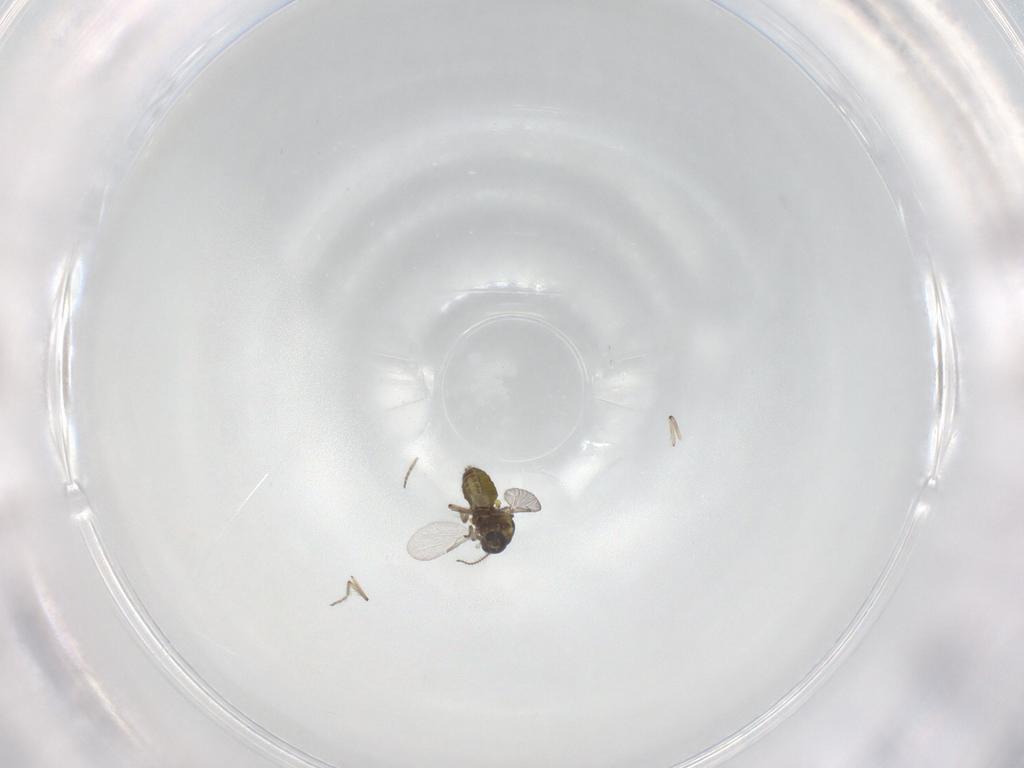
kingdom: Animalia
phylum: Arthropoda
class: Insecta
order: Diptera
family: Ceratopogonidae
